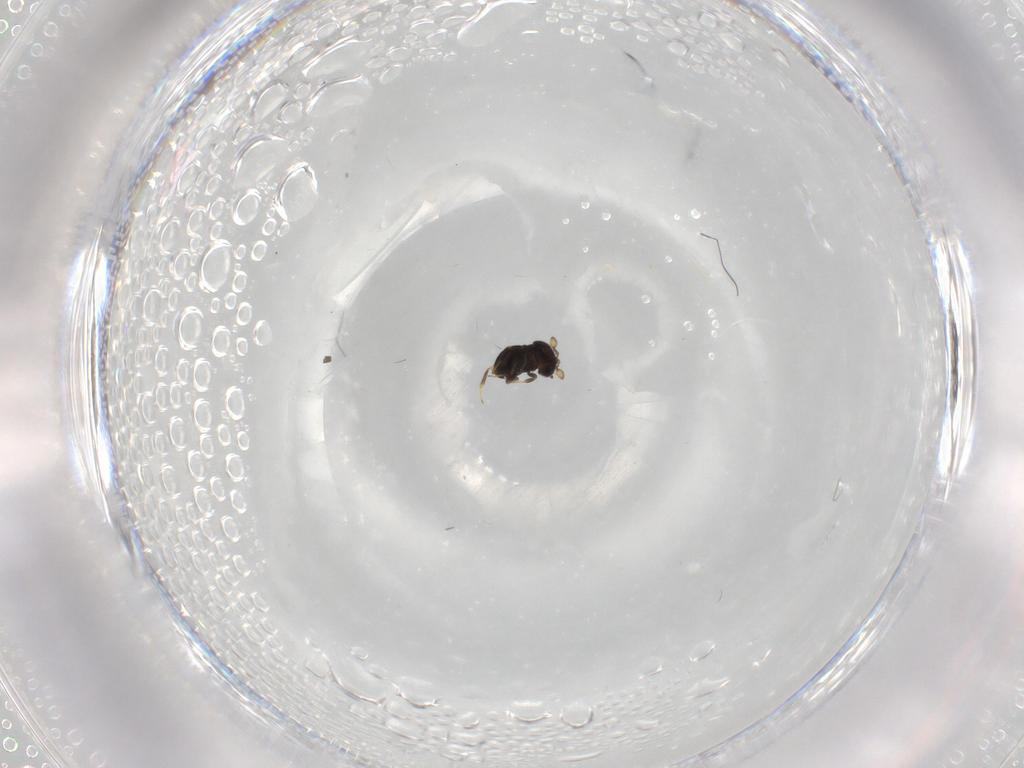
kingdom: Animalia
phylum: Arthropoda
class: Insecta
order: Hymenoptera
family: Scelionidae
